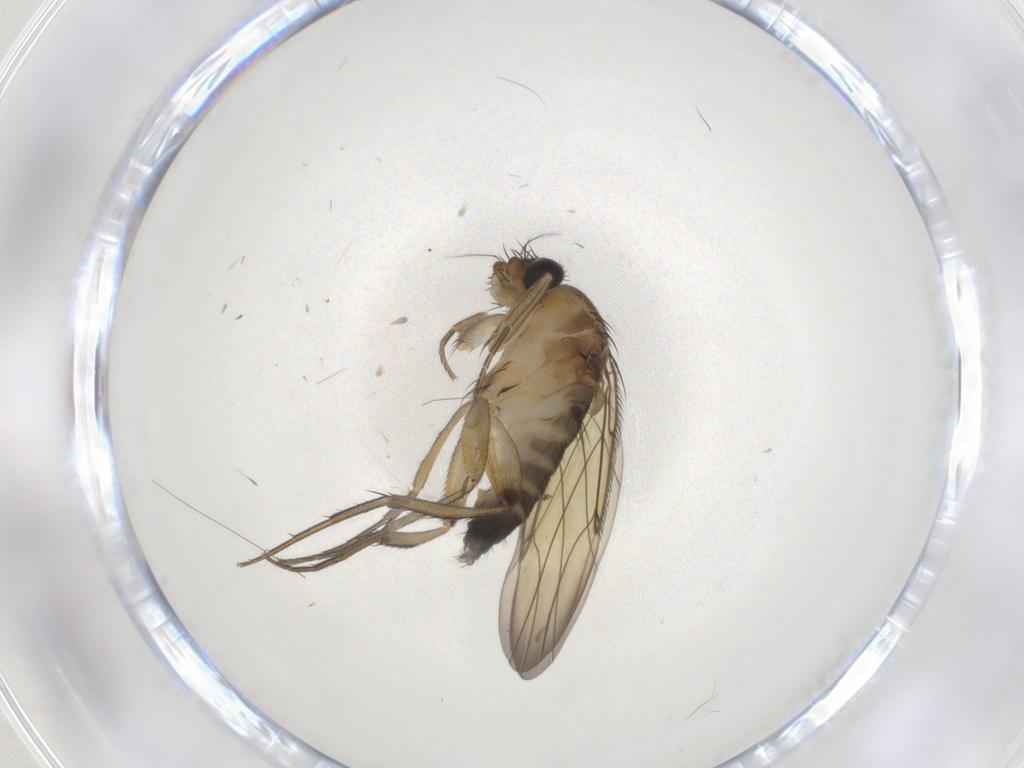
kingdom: Animalia
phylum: Arthropoda
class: Insecta
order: Diptera
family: Phoridae
